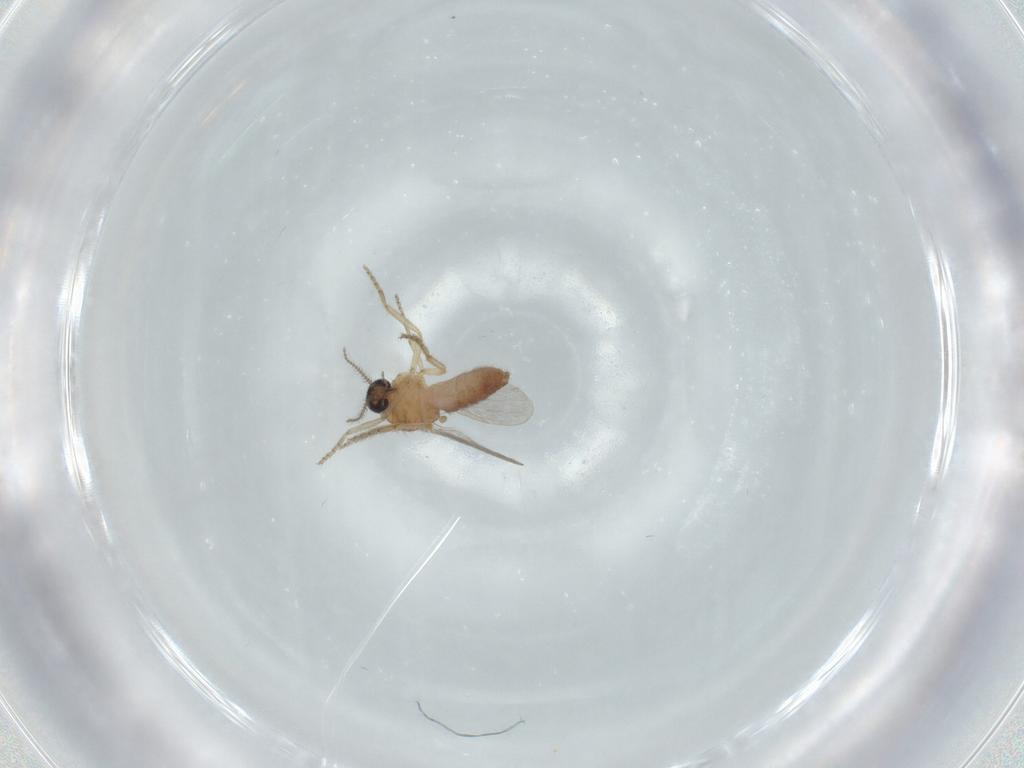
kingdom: Animalia
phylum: Arthropoda
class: Insecta
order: Diptera
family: Ceratopogonidae
